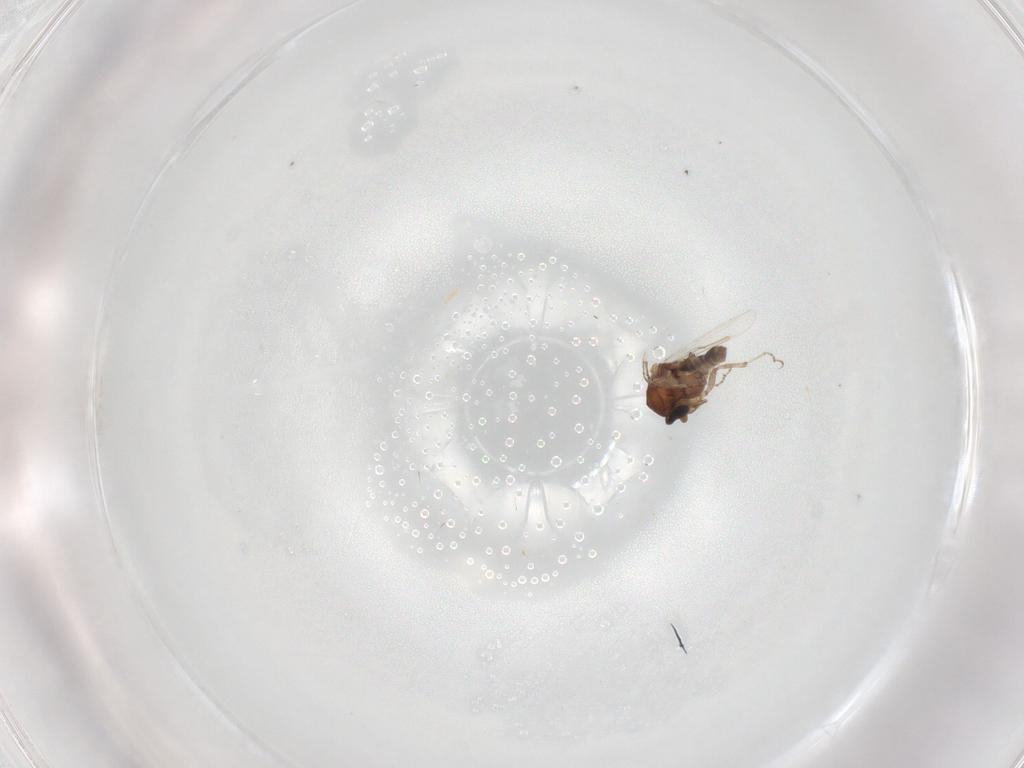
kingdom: Animalia
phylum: Arthropoda
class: Insecta
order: Diptera
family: Ceratopogonidae
